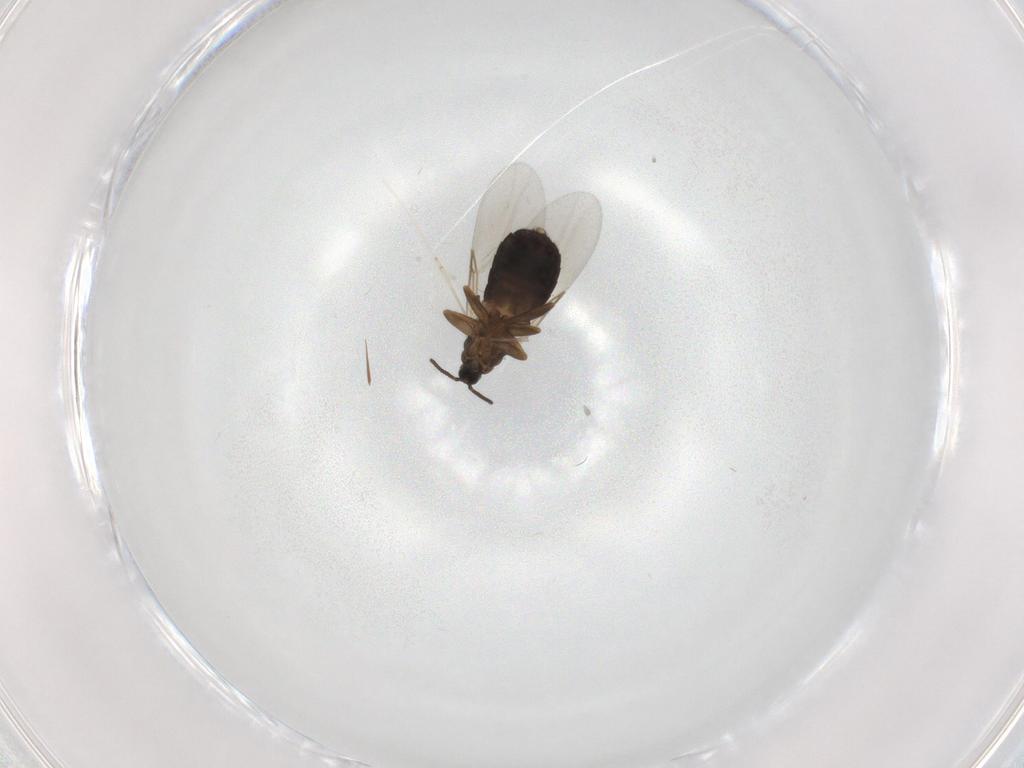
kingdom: Animalia
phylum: Arthropoda
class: Insecta
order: Diptera
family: Scatopsidae
